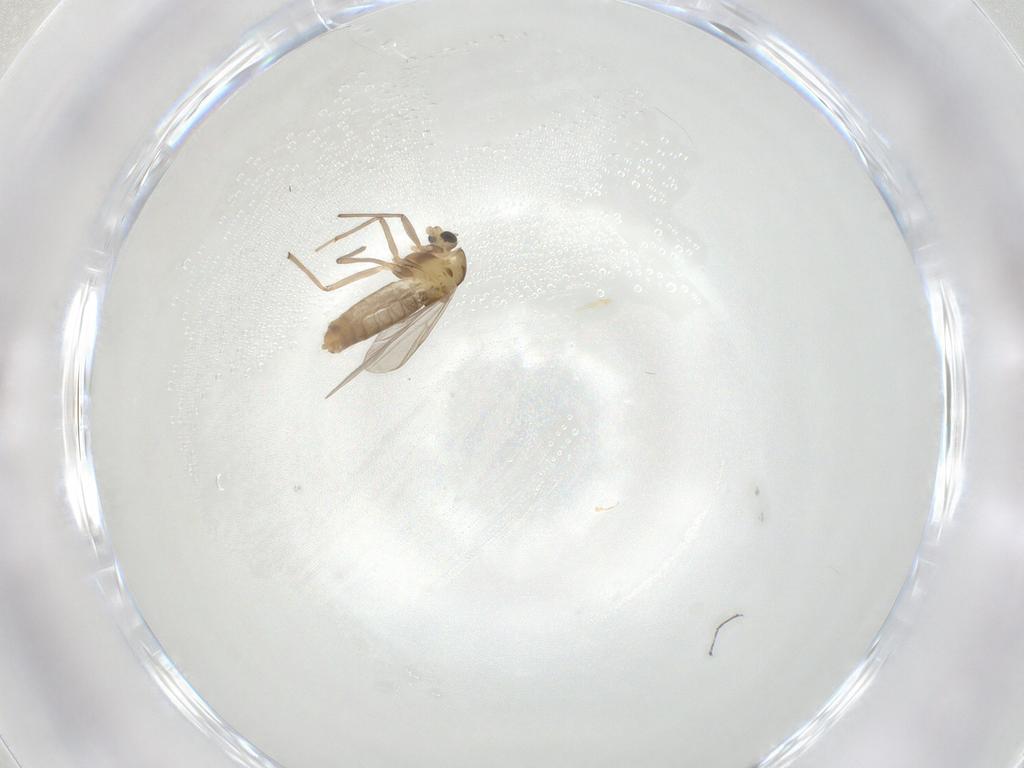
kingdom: Animalia
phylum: Arthropoda
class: Insecta
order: Diptera
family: Chironomidae
